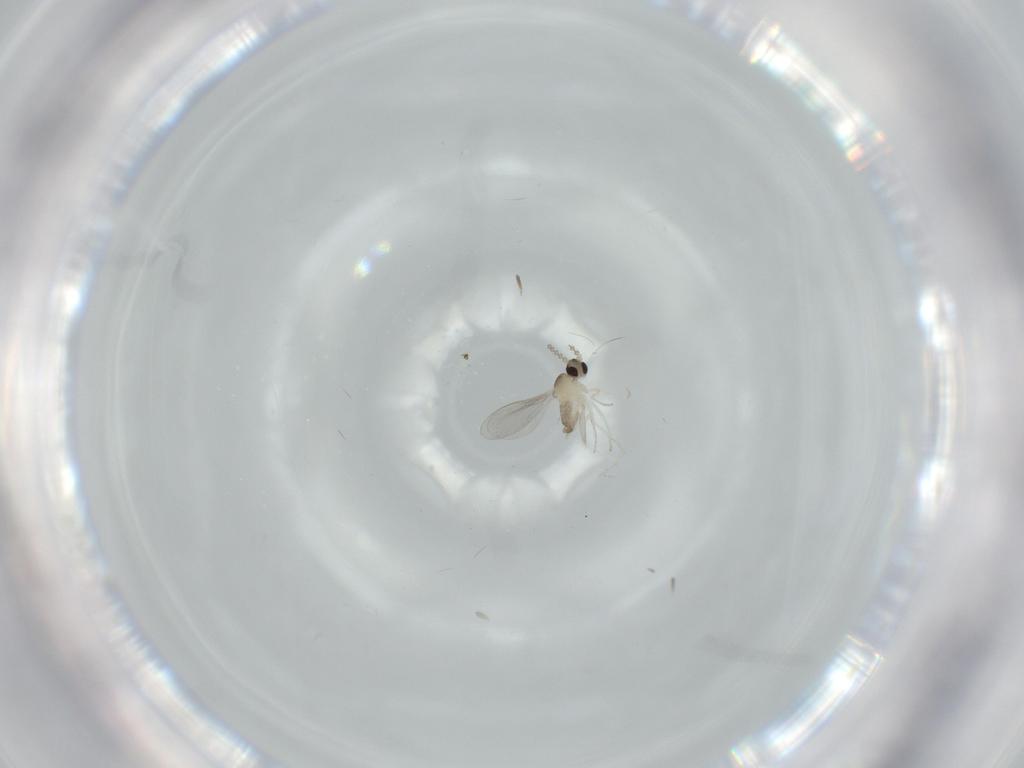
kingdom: Animalia
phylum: Arthropoda
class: Insecta
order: Diptera
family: Cecidomyiidae
